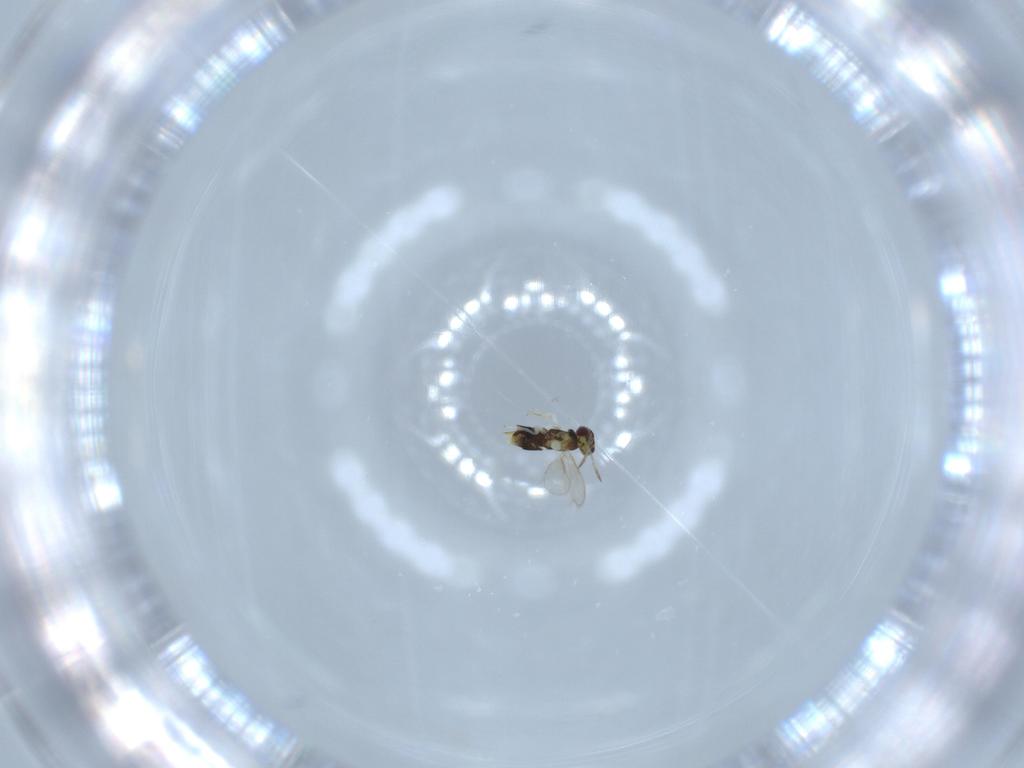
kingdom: Animalia
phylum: Arthropoda
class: Insecta
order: Hymenoptera
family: Aphelinidae
